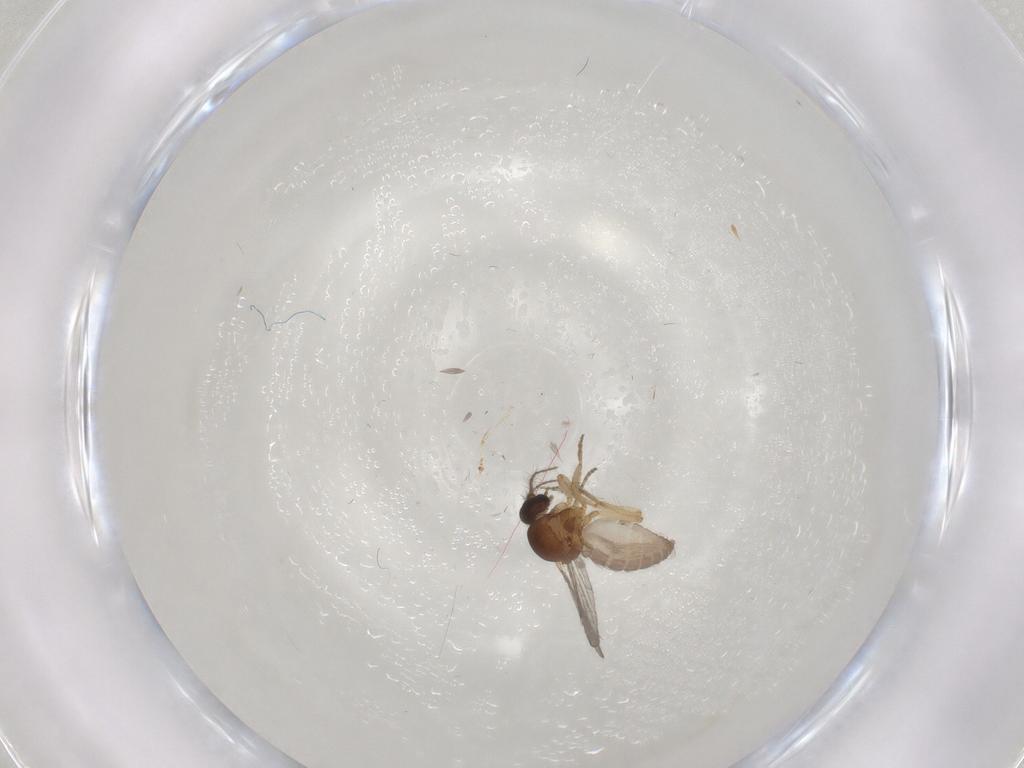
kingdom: Animalia
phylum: Arthropoda
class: Insecta
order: Diptera
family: Ceratopogonidae
